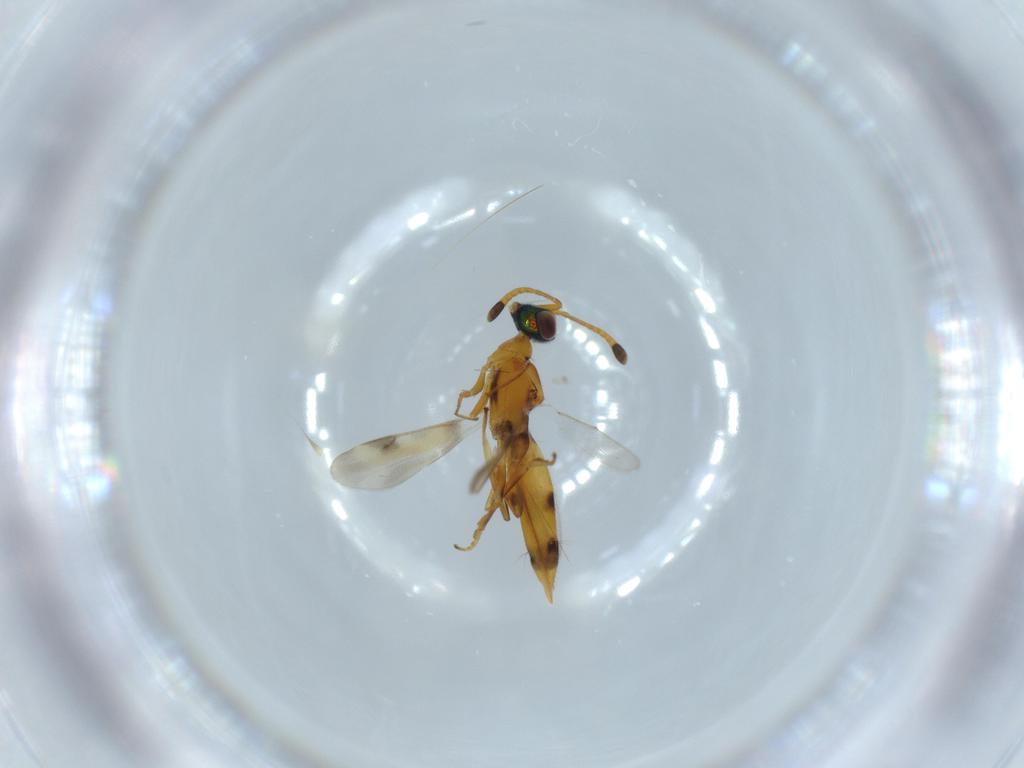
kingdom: Animalia
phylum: Arthropoda
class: Insecta
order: Hymenoptera
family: Eupelmidae
